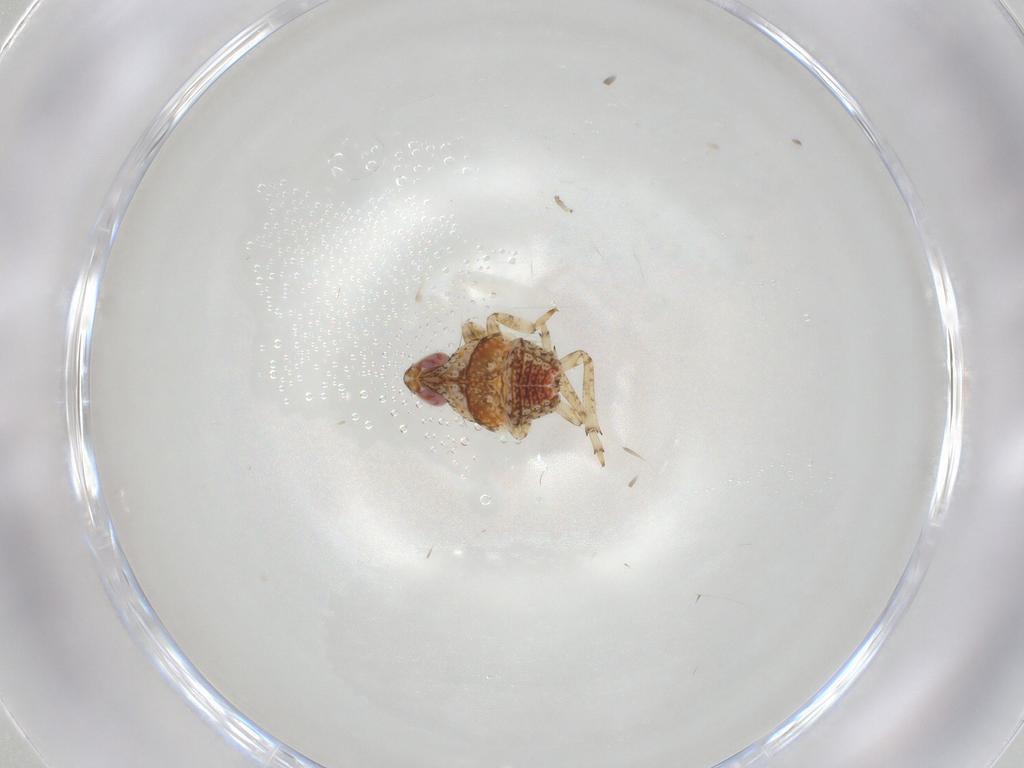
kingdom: Animalia
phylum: Arthropoda
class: Insecta
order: Hemiptera
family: Issidae
